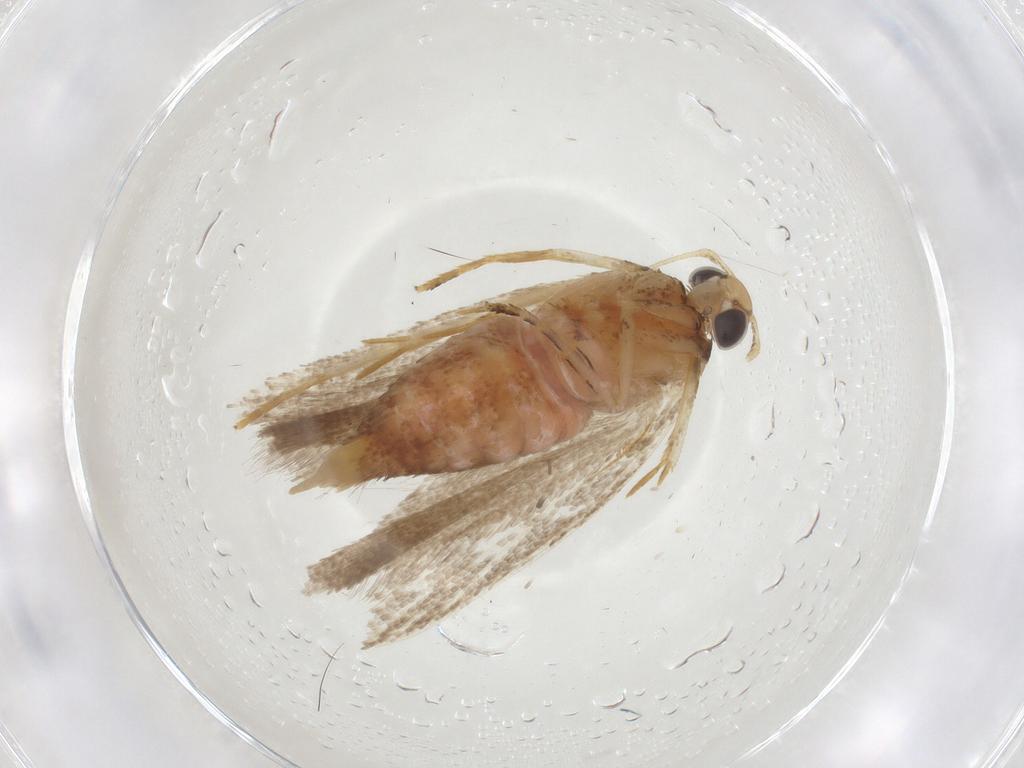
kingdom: Animalia
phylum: Arthropoda
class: Insecta
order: Lepidoptera
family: Gelechiidae
